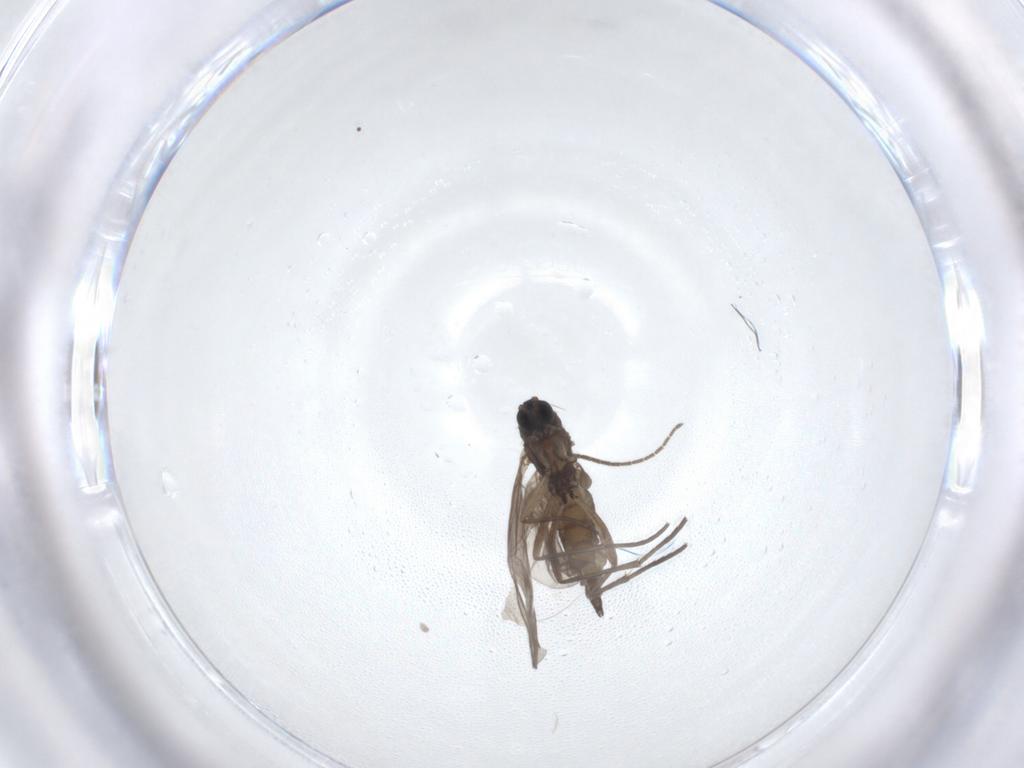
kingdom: Animalia
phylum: Arthropoda
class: Insecta
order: Diptera
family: Sciaridae
